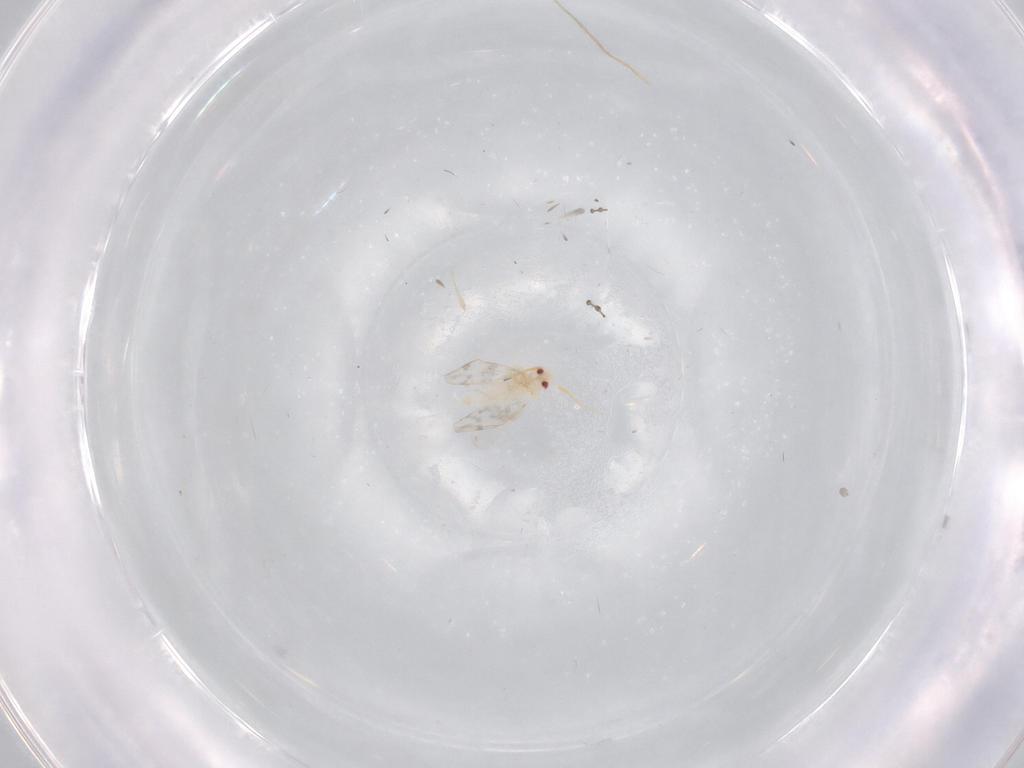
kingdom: Animalia
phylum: Arthropoda
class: Insecta
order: Hemiptera
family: Aleyrodidae
